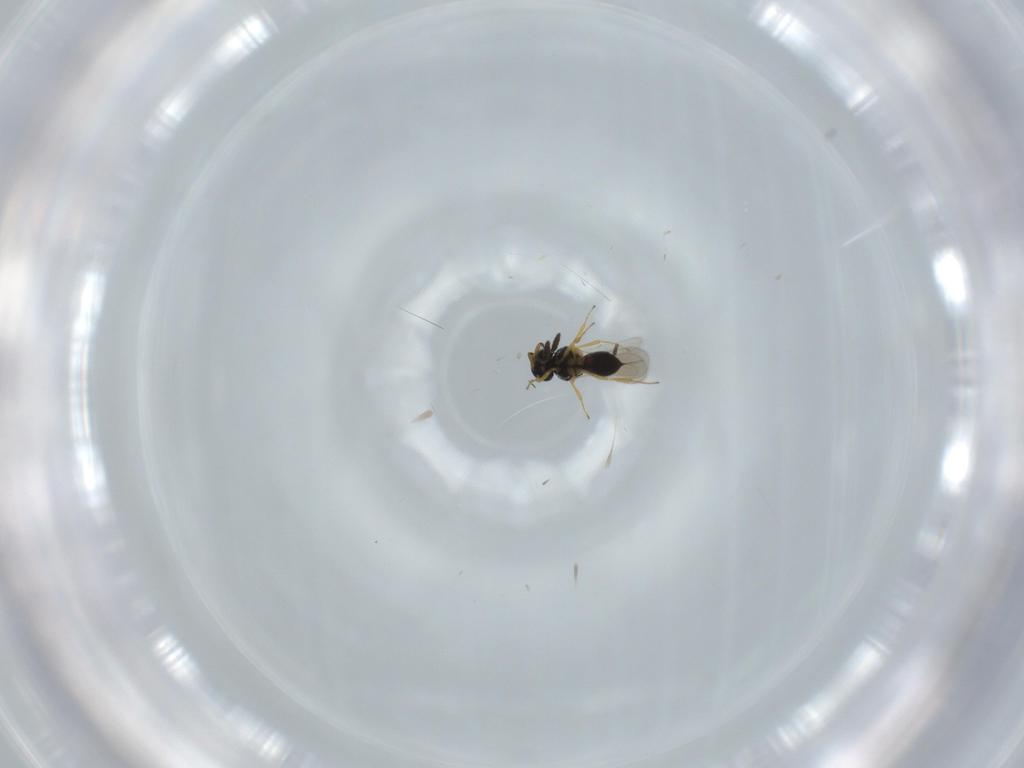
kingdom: Animalia
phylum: Arthropoda
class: Insecta
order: Hymenoptera
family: Scelionidae
